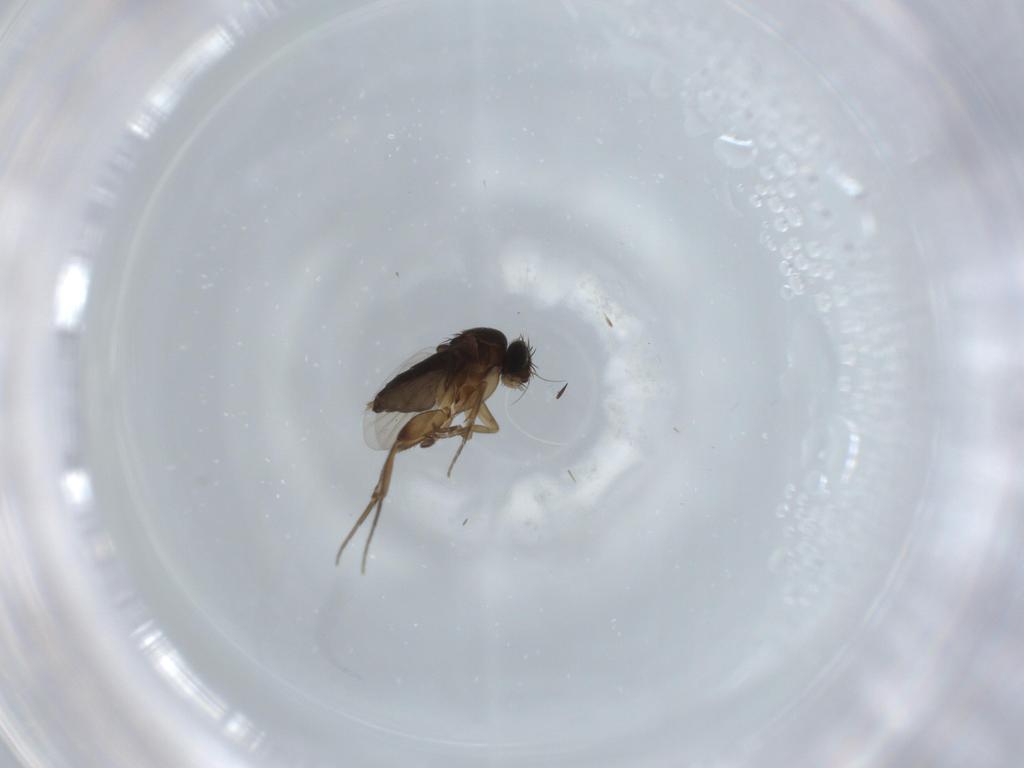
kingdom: Animalia
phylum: Arthropoda
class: Insecta
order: Diptera
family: Phoridae
